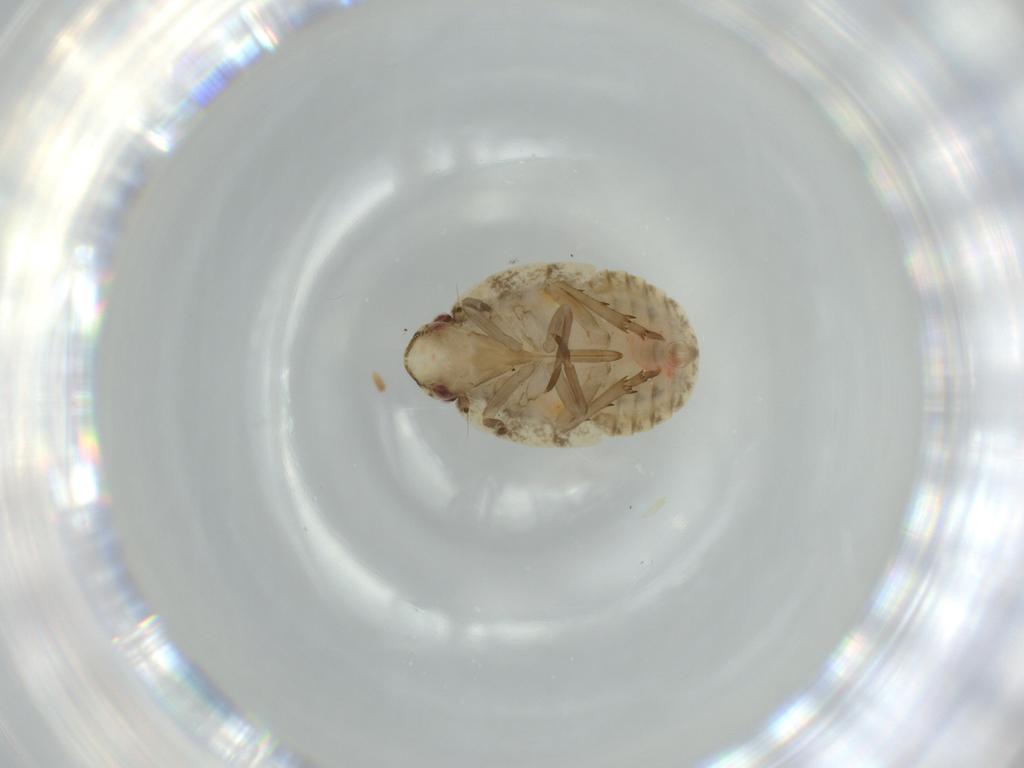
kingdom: Animalia
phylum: Arthropoda
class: Insecta
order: Hemiptera
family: Flatidae
